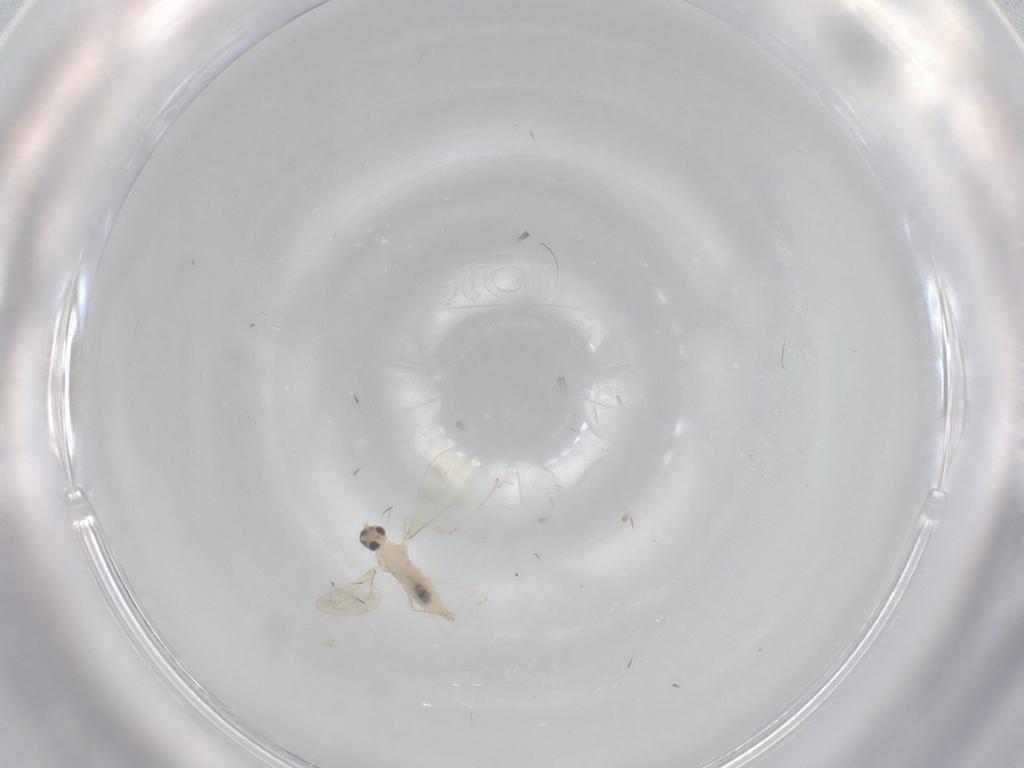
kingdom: Animalia
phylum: Arthropoda
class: Insecta
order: Diptera
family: Cecidomyiidae
